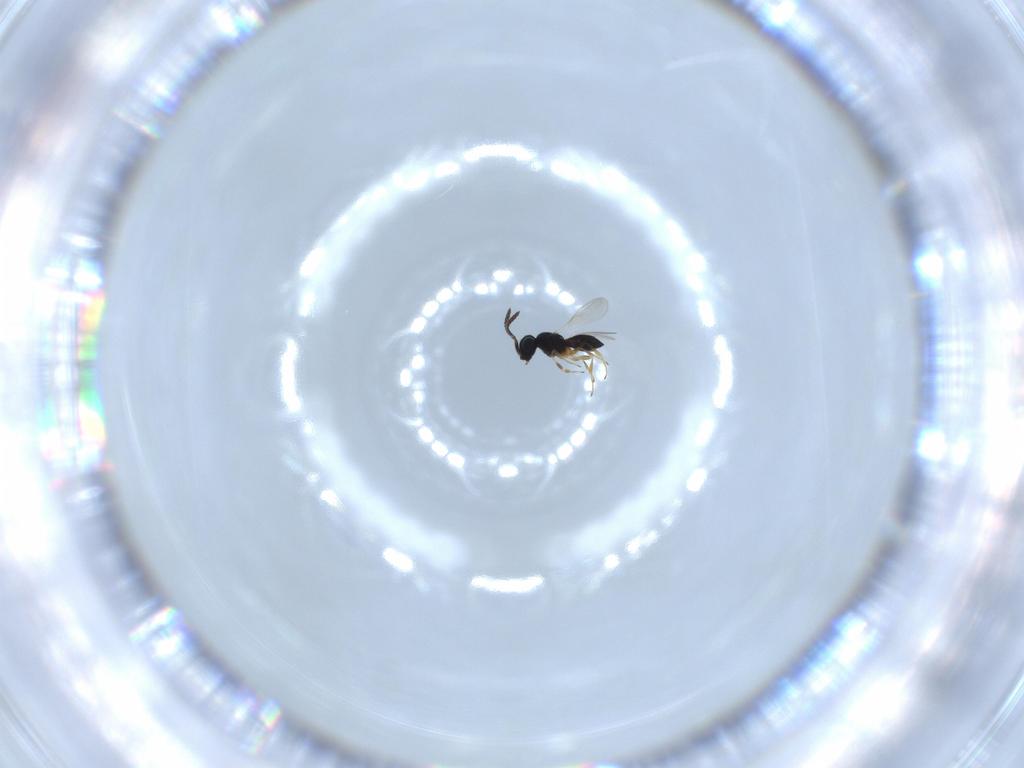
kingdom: Animalia
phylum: Arthropoda
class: Insecta
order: Hymenoptera
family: Scelionidae
